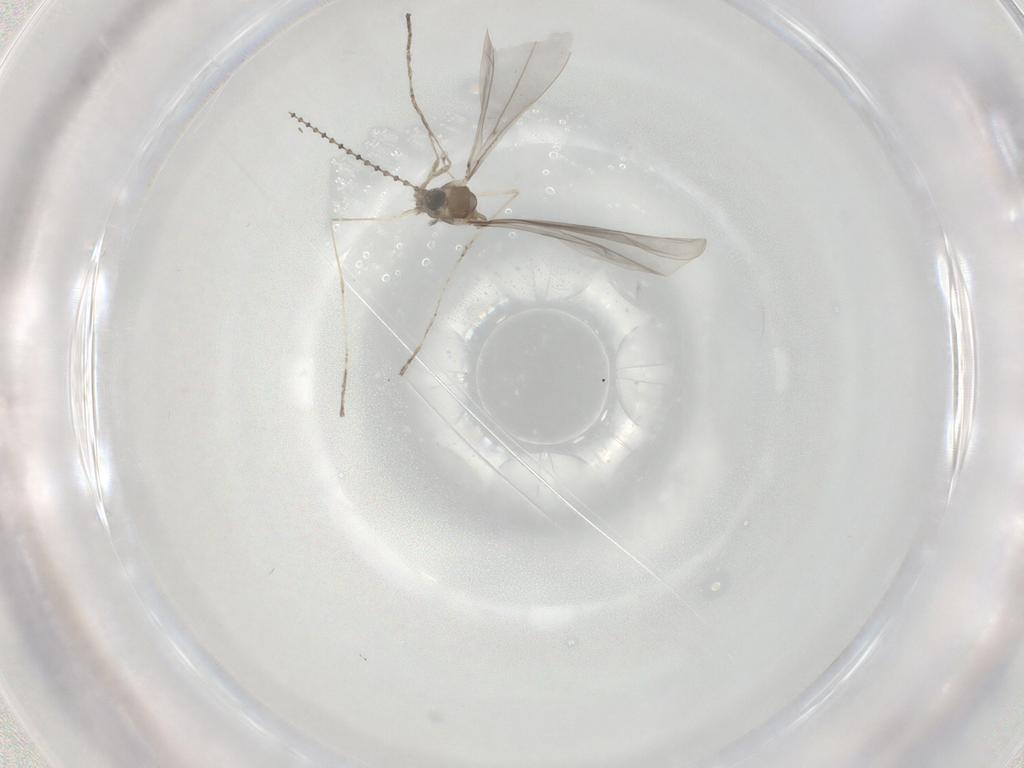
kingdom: Animalia
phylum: Arthropoda
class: Insecta
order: Diptera
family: Cecidomyiidae
